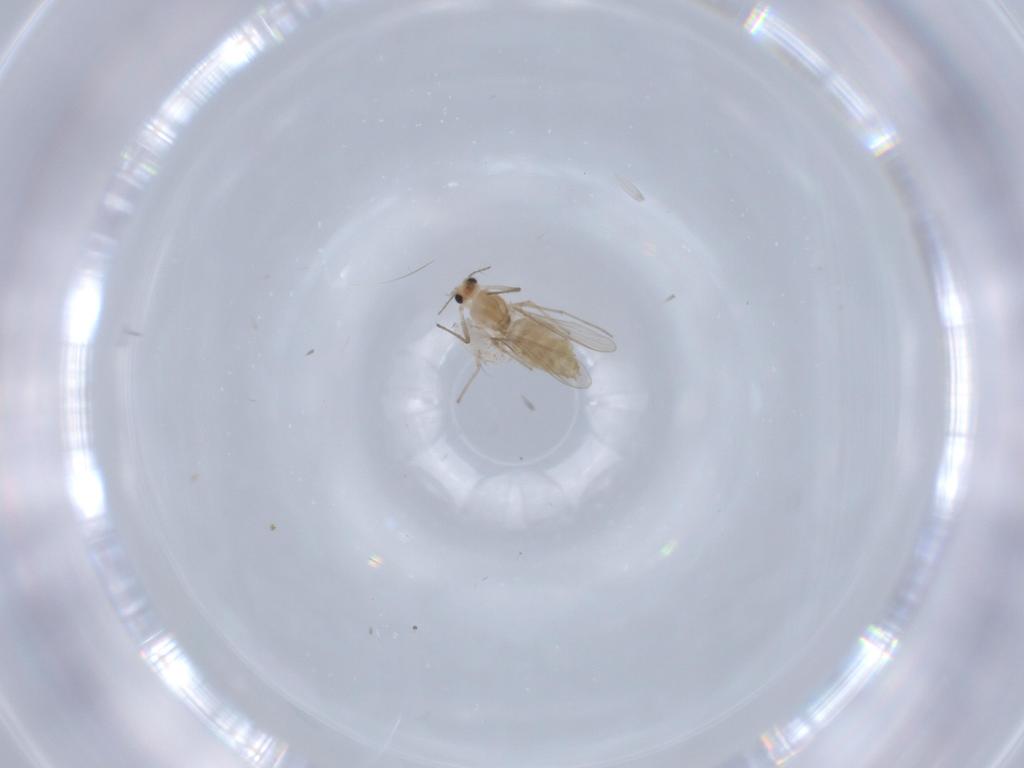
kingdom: Animalia
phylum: Arthropoda
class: Insecta
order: Diptera
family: Chironomidae
